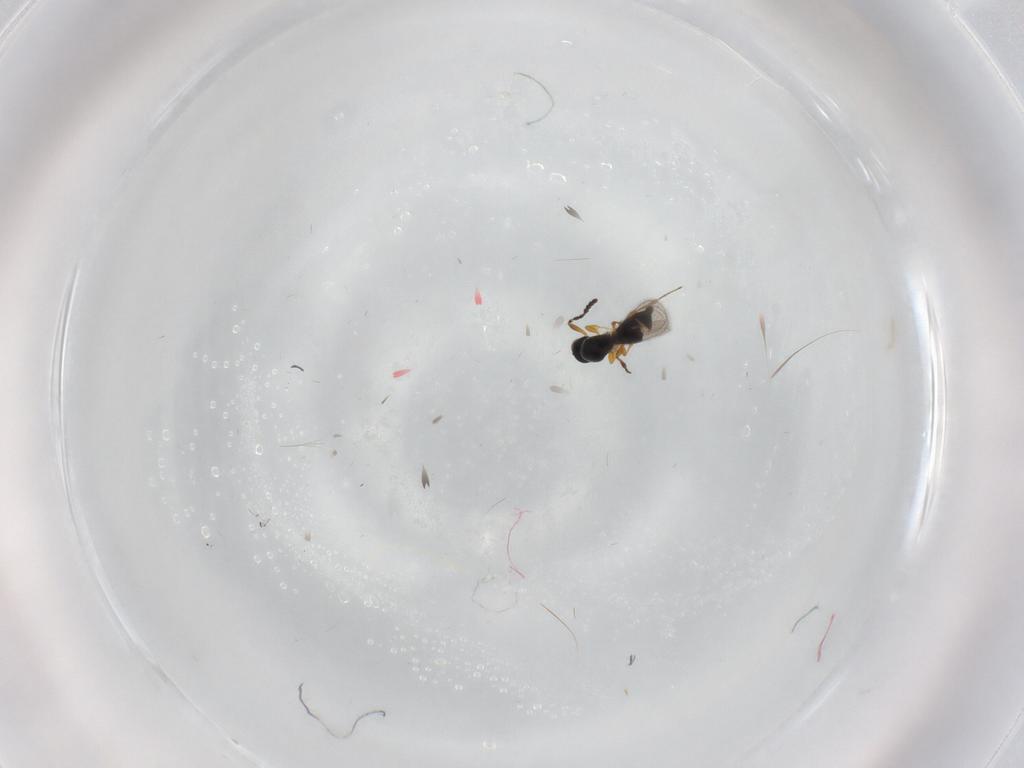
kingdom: Animalia
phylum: Arthropoda
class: Insecta
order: Hymenoptera
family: Platygastridae
